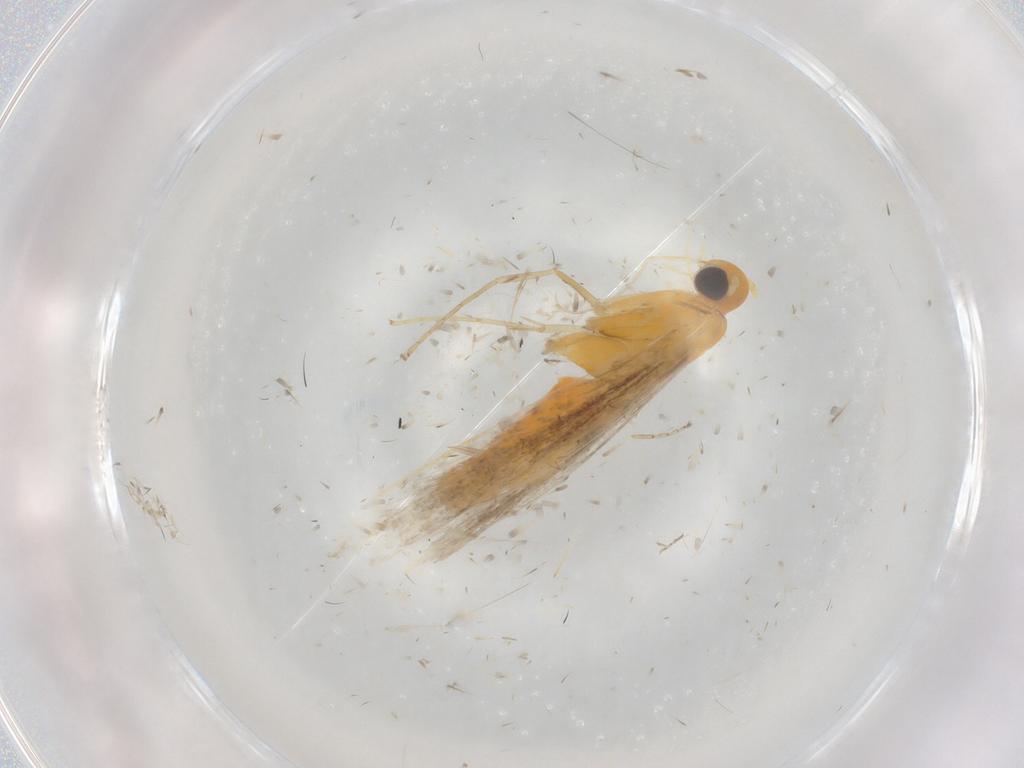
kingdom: Animalia
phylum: Arthropoda
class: Insecta
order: Lepidoptera
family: Gracillariidae
